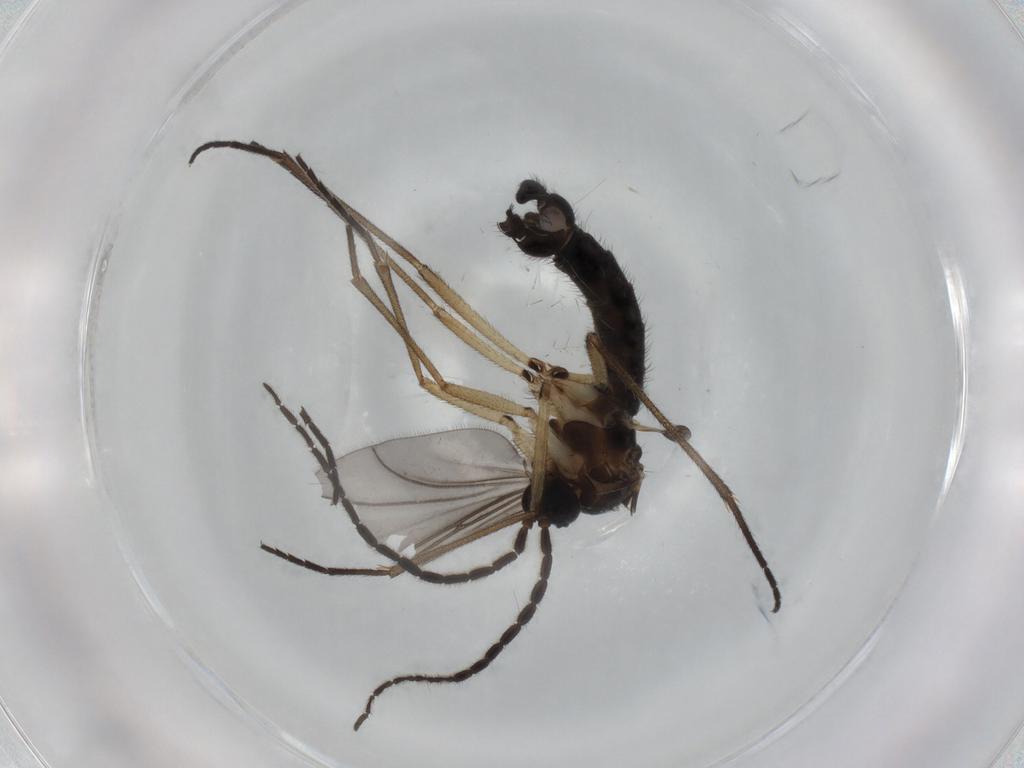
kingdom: Animalia
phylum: Arthropoda
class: Insecta
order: Diptera
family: Sciaridae
